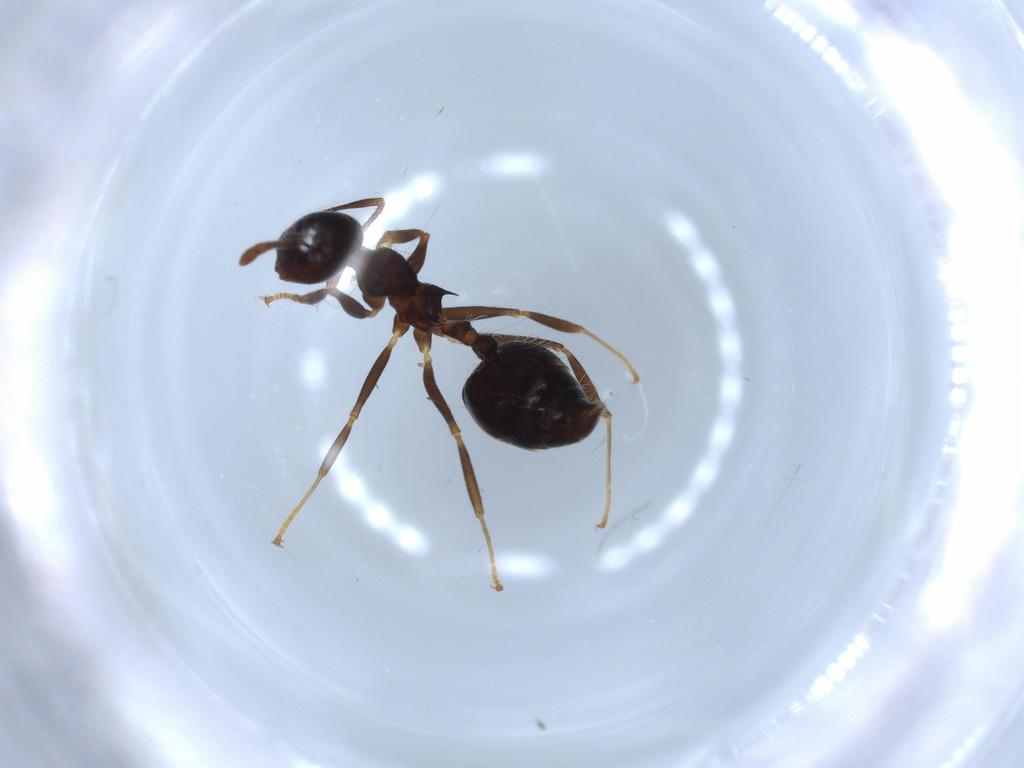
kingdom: Animalia
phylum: Arthropoda
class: Insecta
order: Hymenoptera
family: Formicidae
